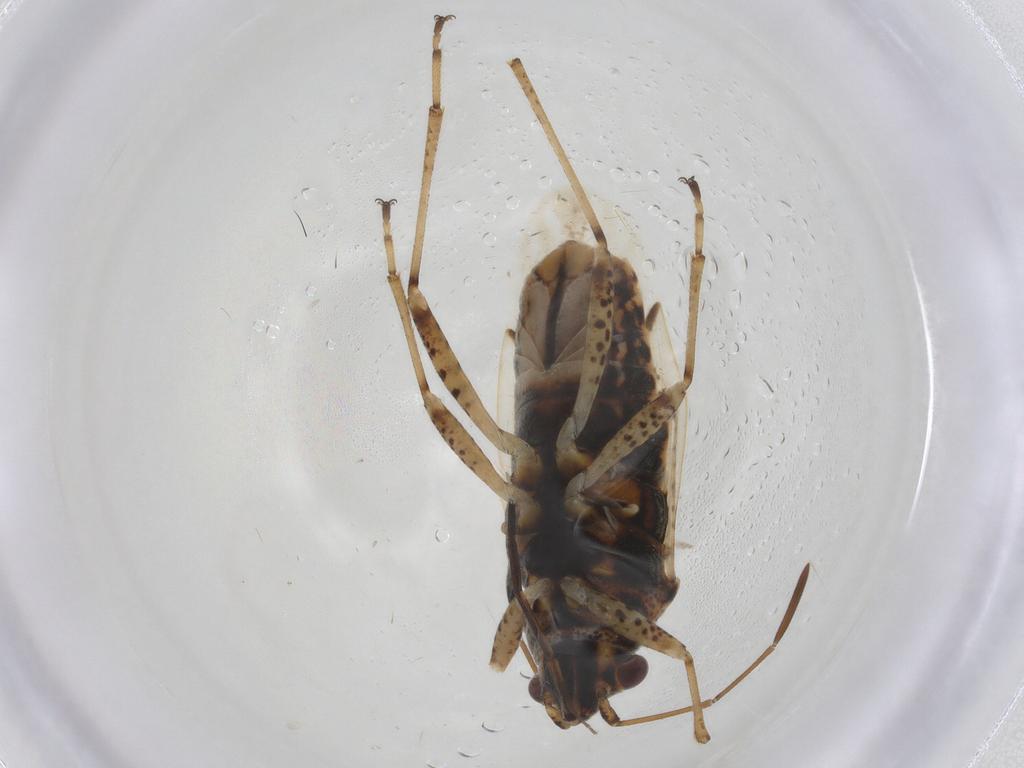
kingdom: Animalia
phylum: Arthropoda
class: Insecta
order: Hemiptera
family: Lygaeidae
